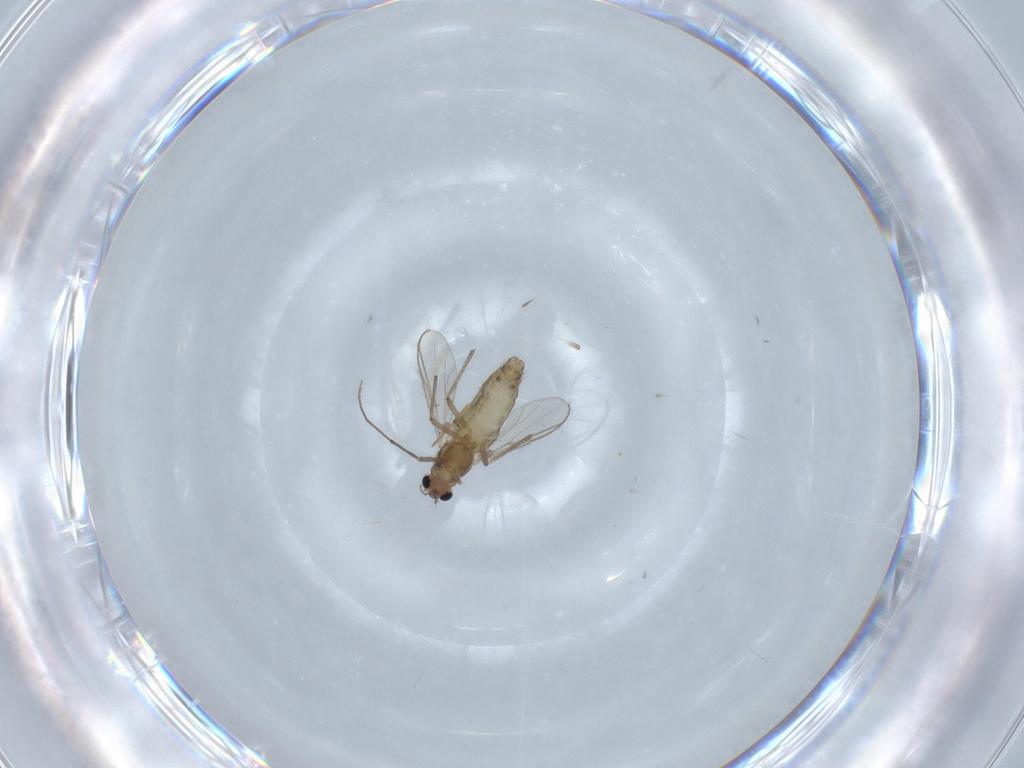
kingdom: Animalia
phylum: Arthropoda
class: Insecta
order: Diptera
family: Chironomidae
